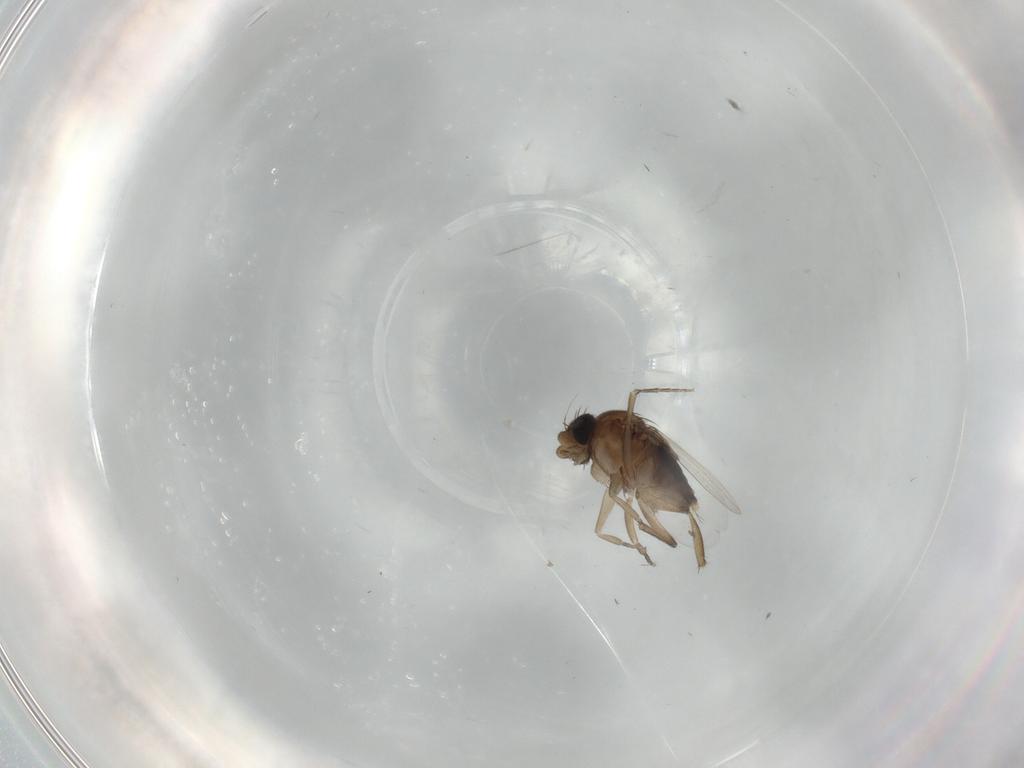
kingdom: Animalia
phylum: Arthropoda
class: Insecta
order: Diptera
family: Phoridae
